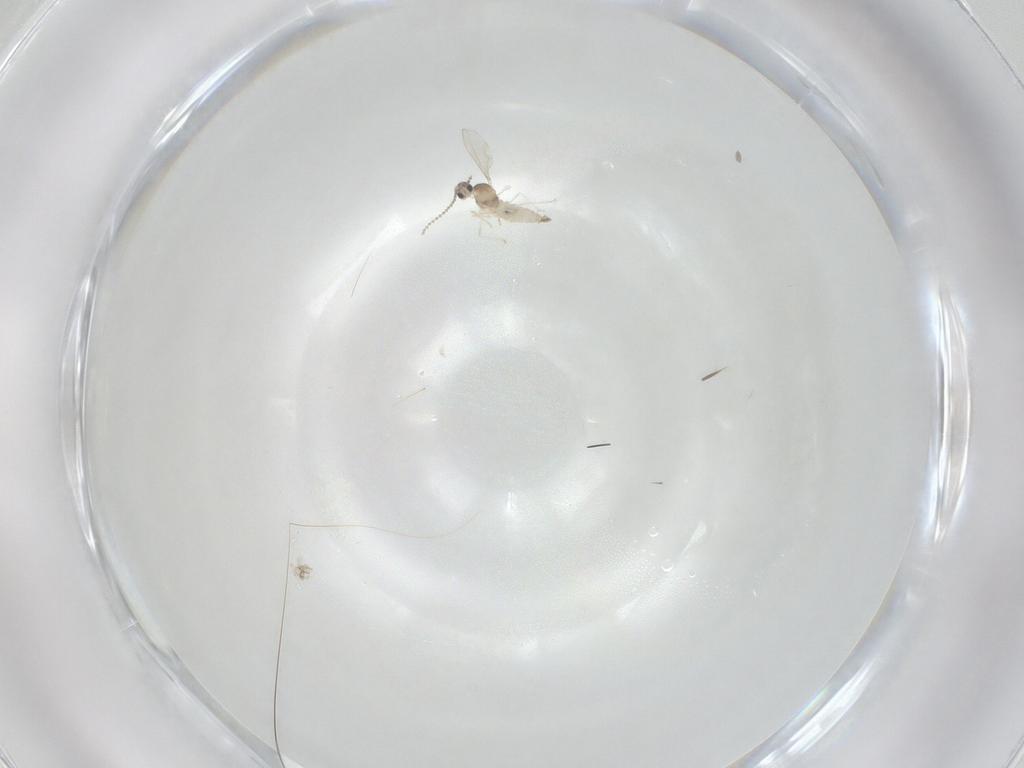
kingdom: Animalia
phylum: Arthropoda
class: Insecta
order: Diptera
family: Cecidomyiidae
